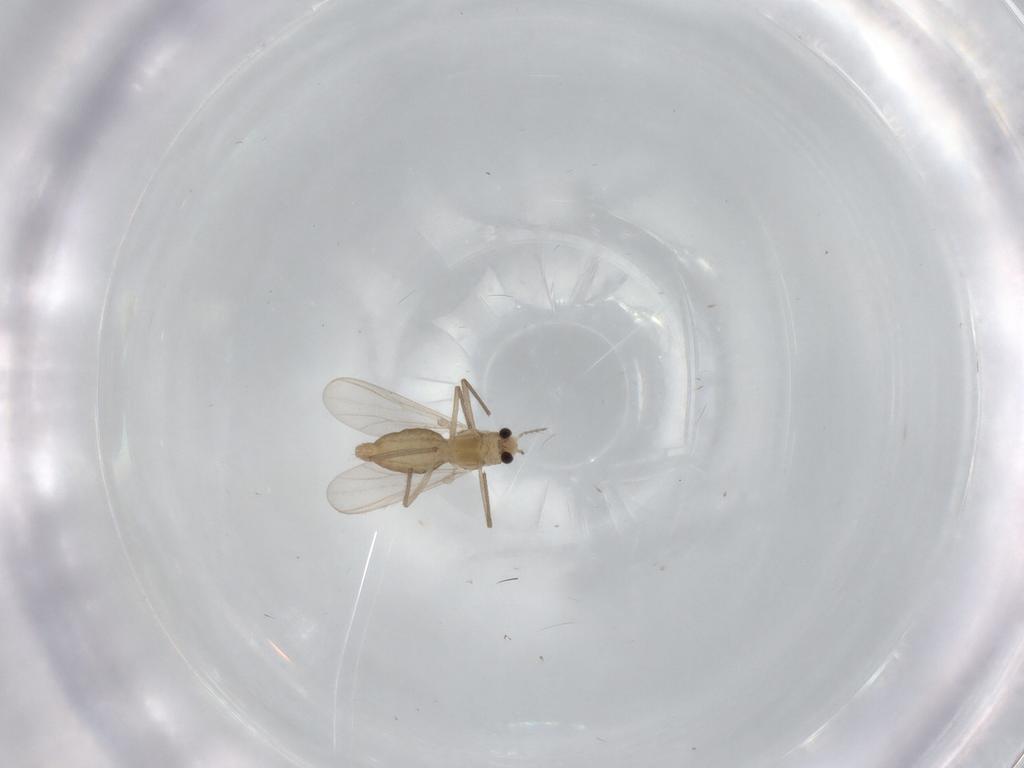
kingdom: Animalia
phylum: Arthropoda
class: Insecta
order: Diptera
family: Chironomidae
